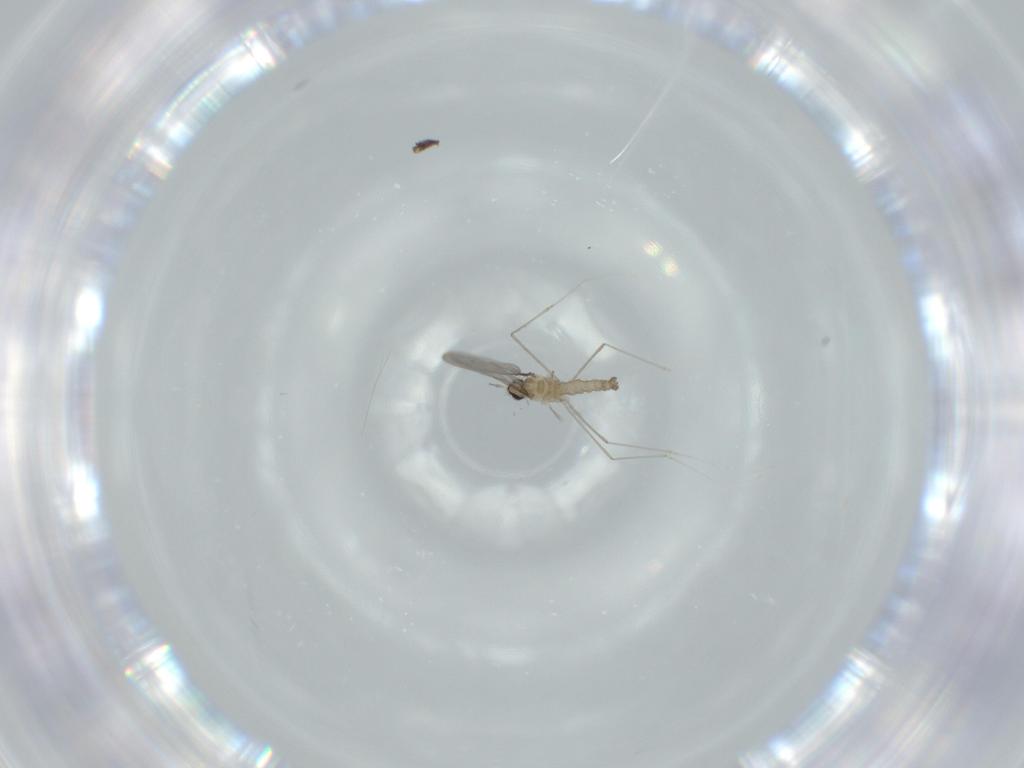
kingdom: Animalia
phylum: Arthropoda
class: Insecta
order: Diptera
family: Cecidomyiidae
